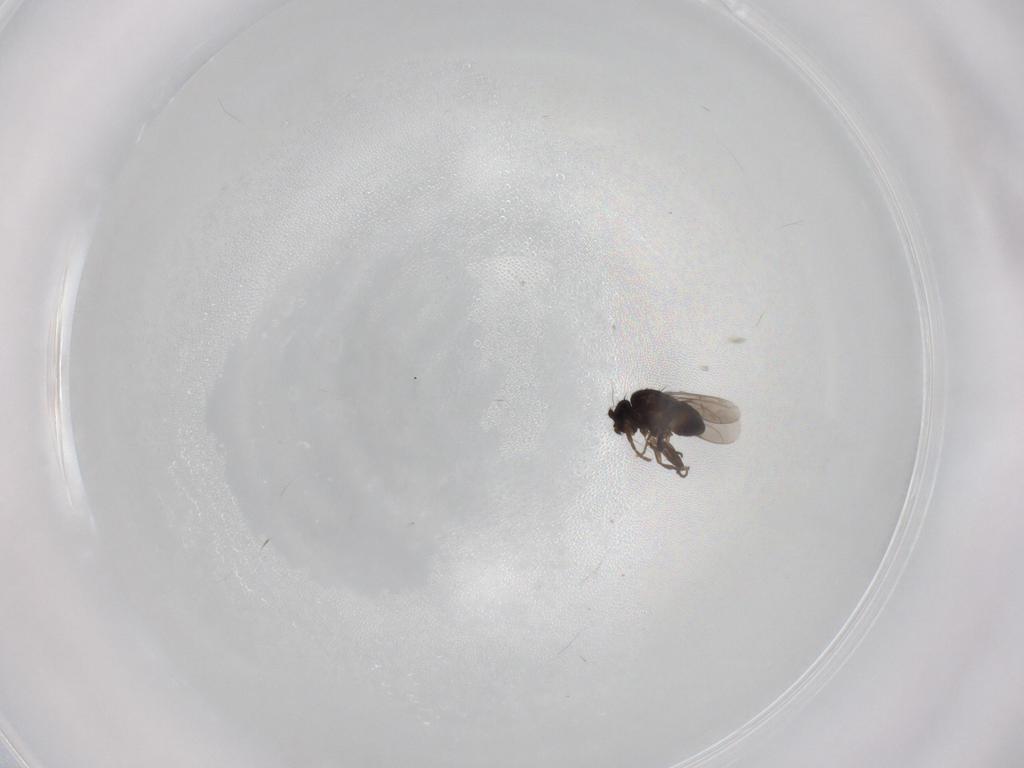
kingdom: Animalia
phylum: Arthropoda
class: Insecta
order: Diptera
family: Sphaeroceridae
